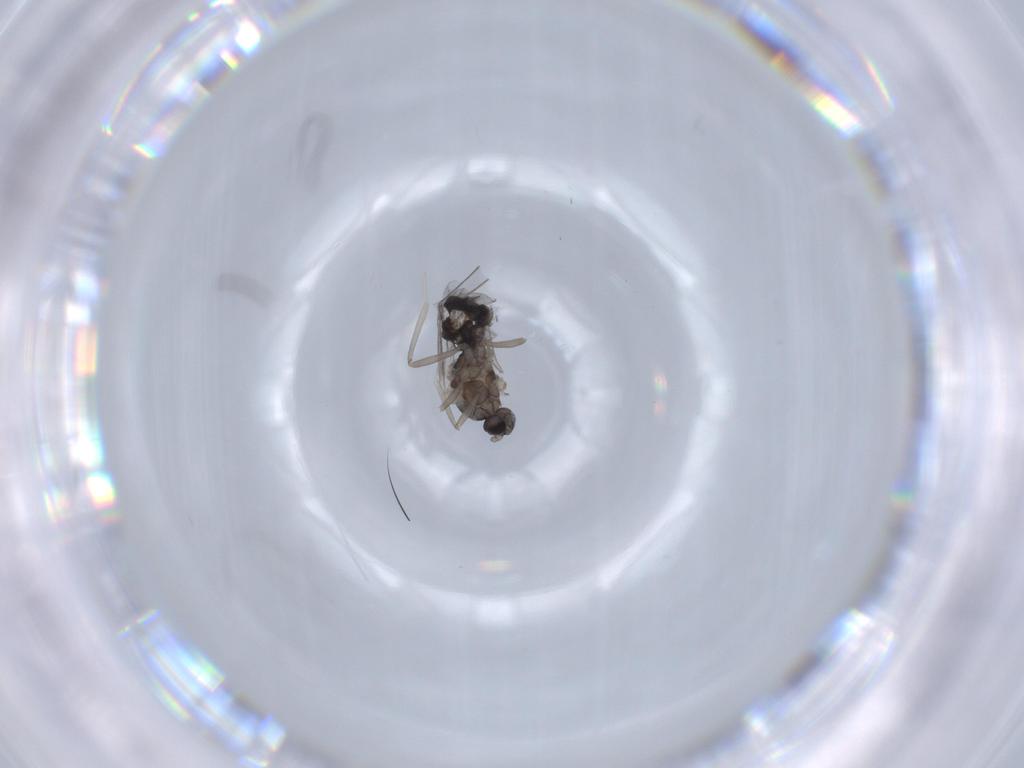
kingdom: Animalia
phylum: Arthropoda
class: Insecta
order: Diptera
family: Cecidomyiidae
